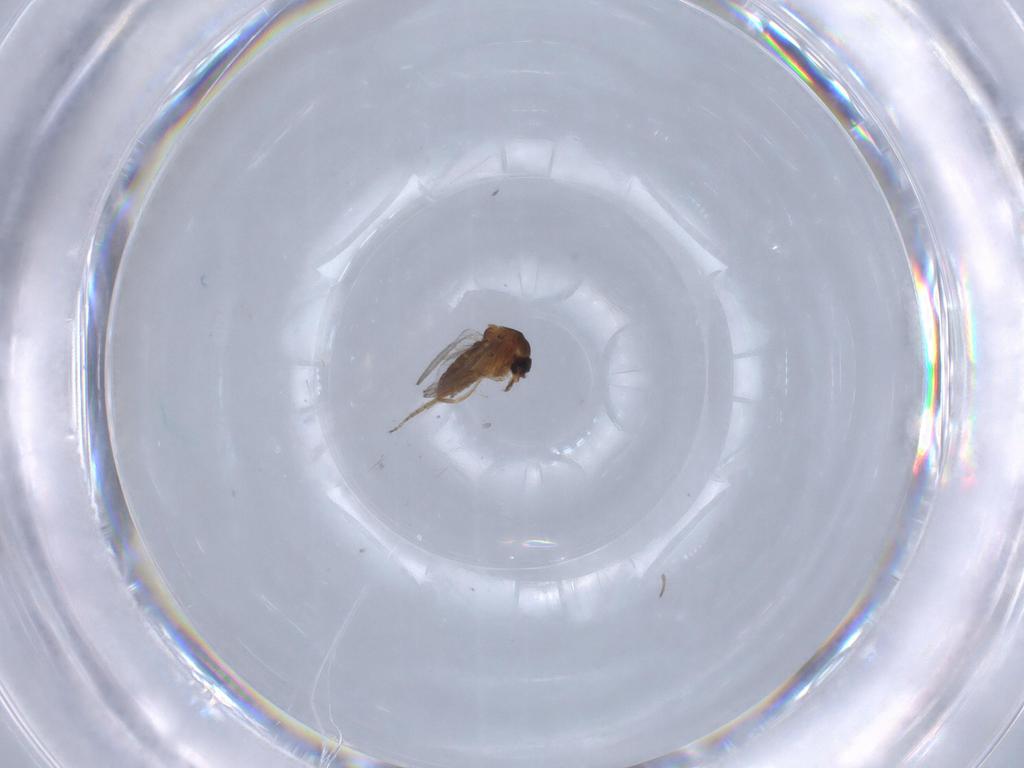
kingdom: Animalia
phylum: Arthropoda
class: Insecta
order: Diptera
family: Ceratopogonidae
